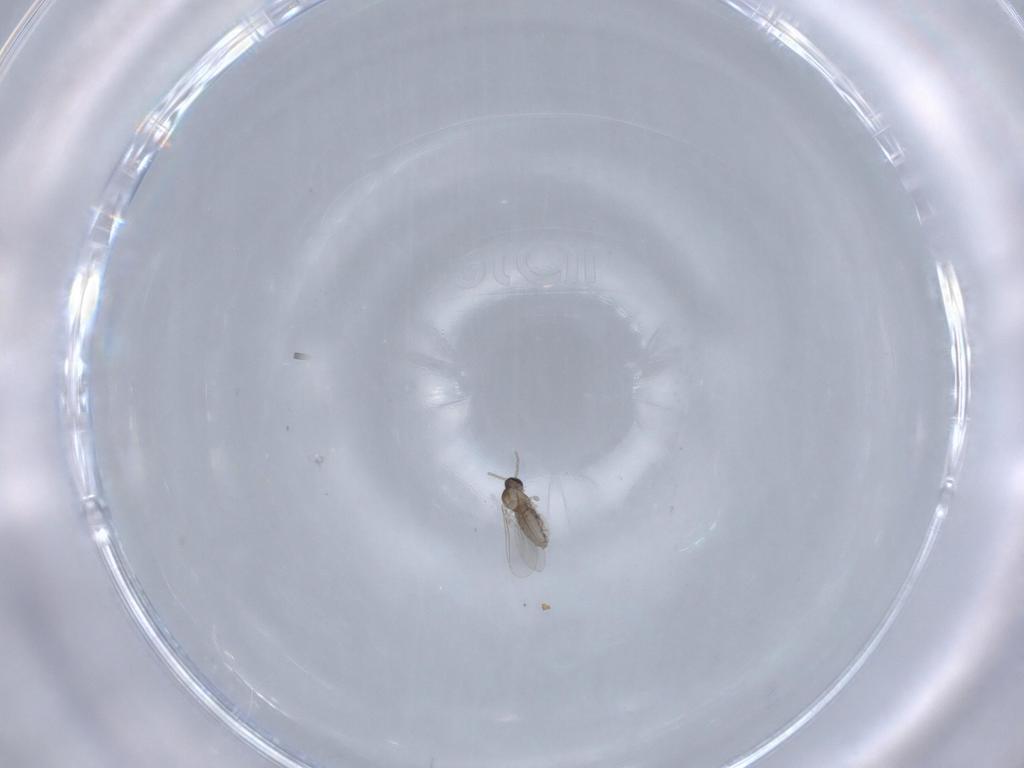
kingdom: Animalia
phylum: Arthropoda
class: Insecta
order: Diptera
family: Cecidomyiidae
